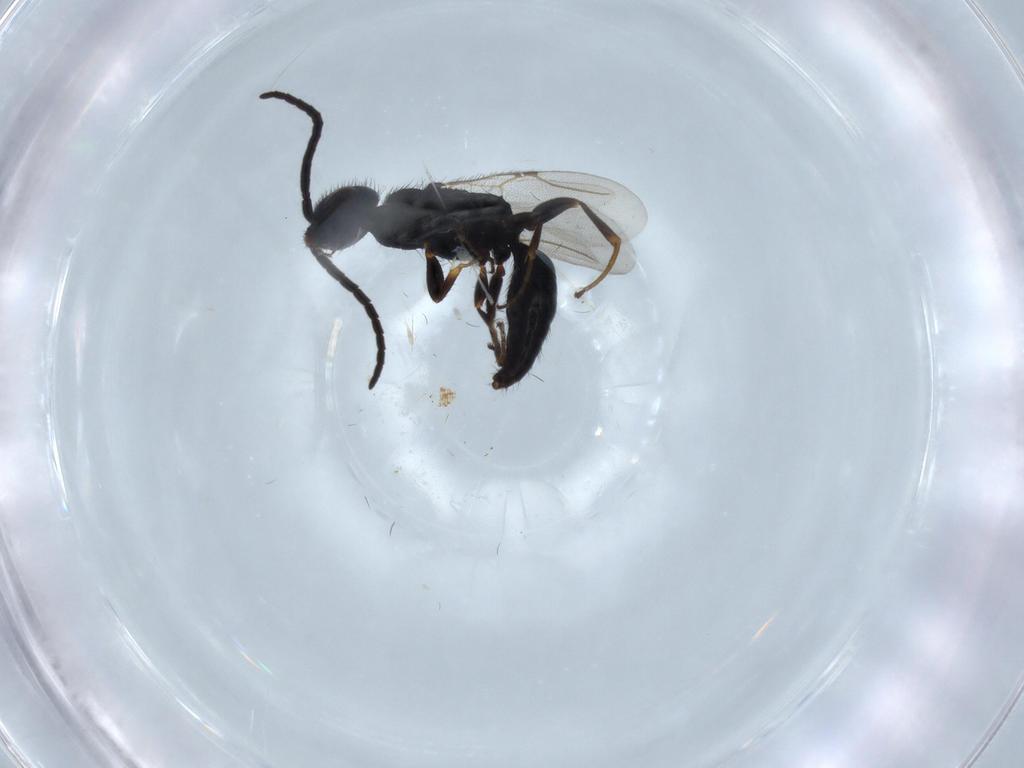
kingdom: Animalia
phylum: Arthropoda
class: Insecta
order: Hymenoptera
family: Bethylidae
